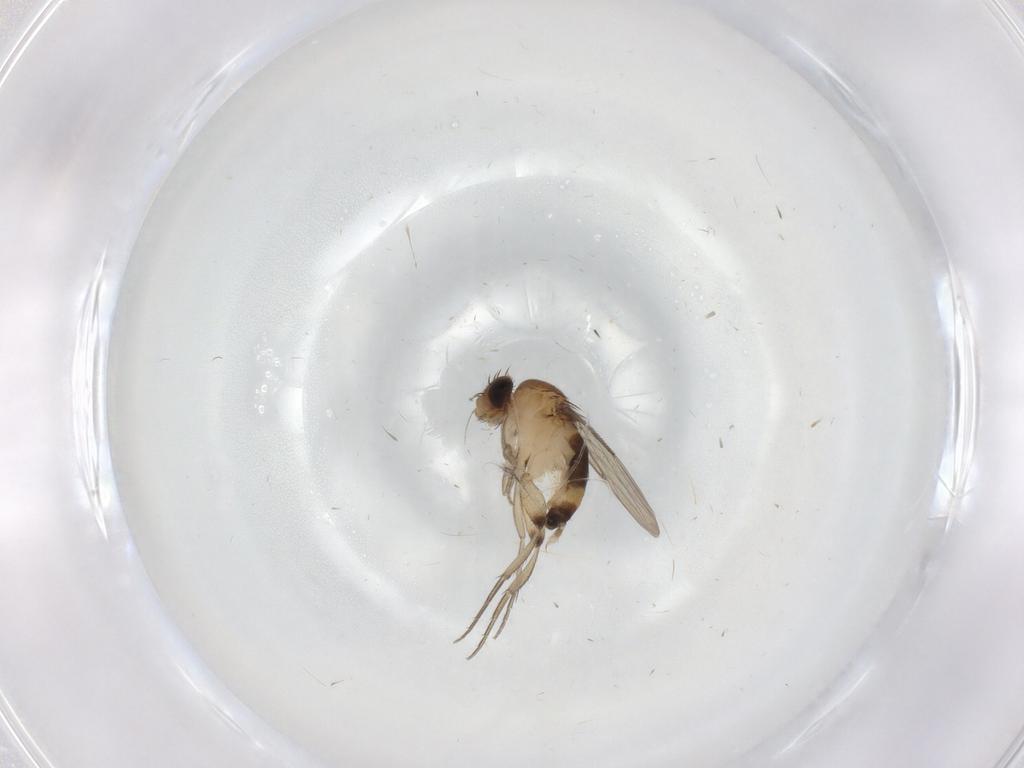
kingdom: Animalia
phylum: Arthropoda
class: Insecta
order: Diptera
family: Phoridae
